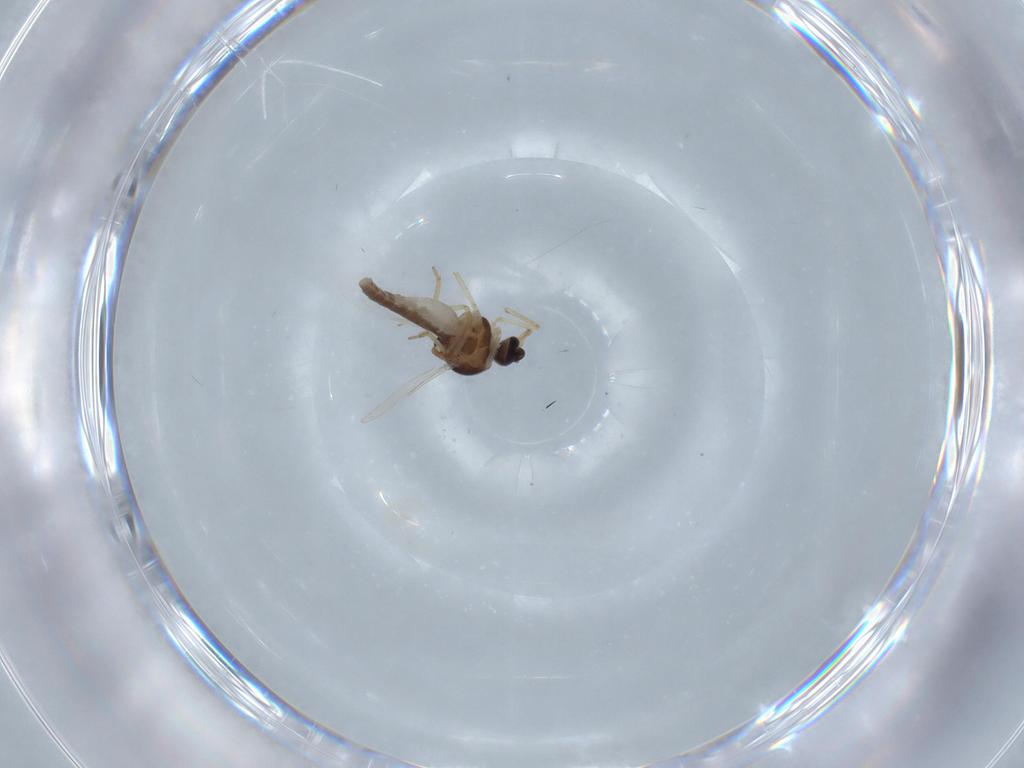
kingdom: Animalia
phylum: Arthropoda
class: Insecta
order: Diptera
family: Ceratopogonidae
